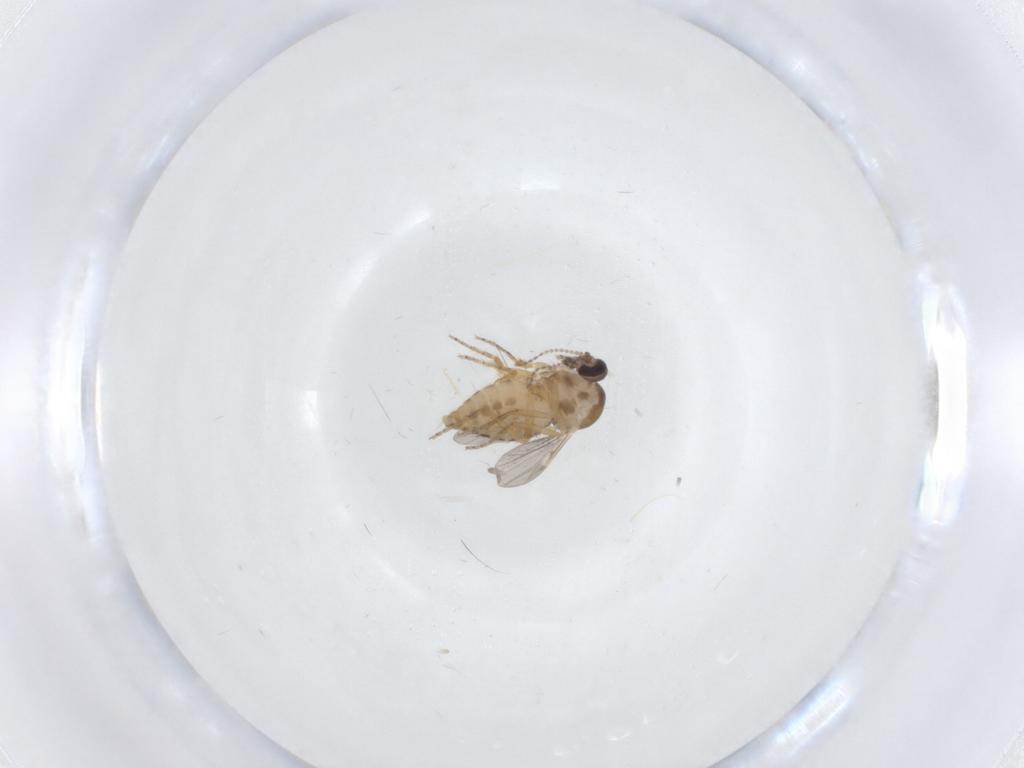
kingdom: Animalia
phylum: Arthropoda
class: Insecta
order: Diptera
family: Ceratopogonidae
